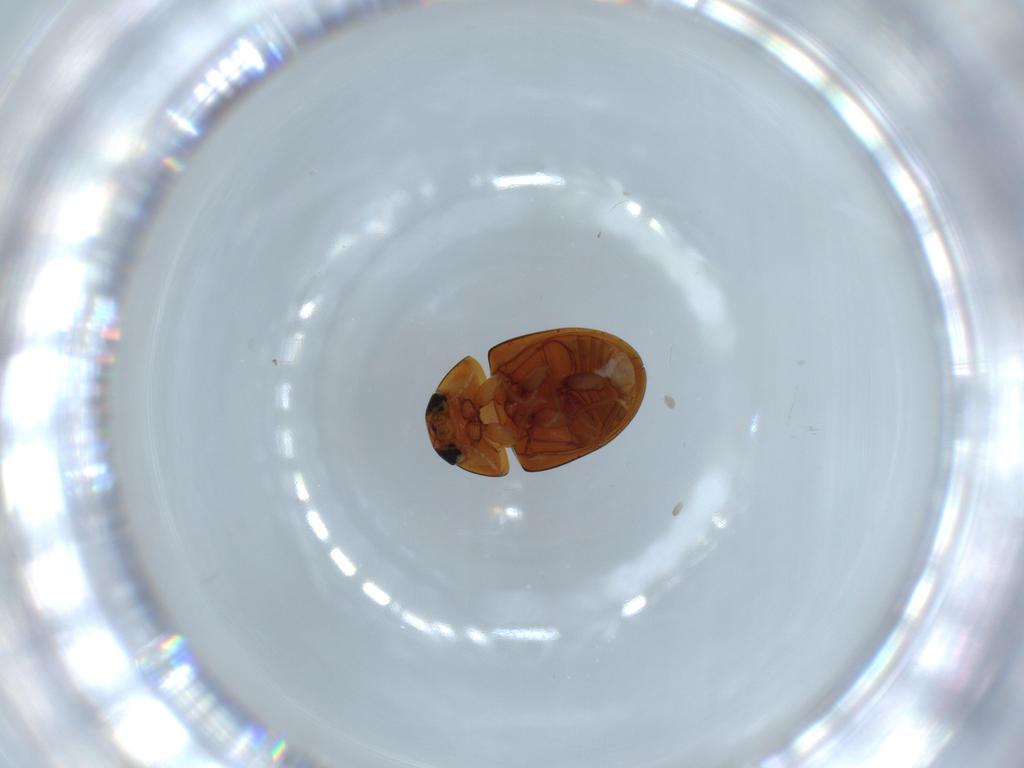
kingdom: Animalia
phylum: Arthropoda
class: Insecta
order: Coleoptera
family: Phalacridae
